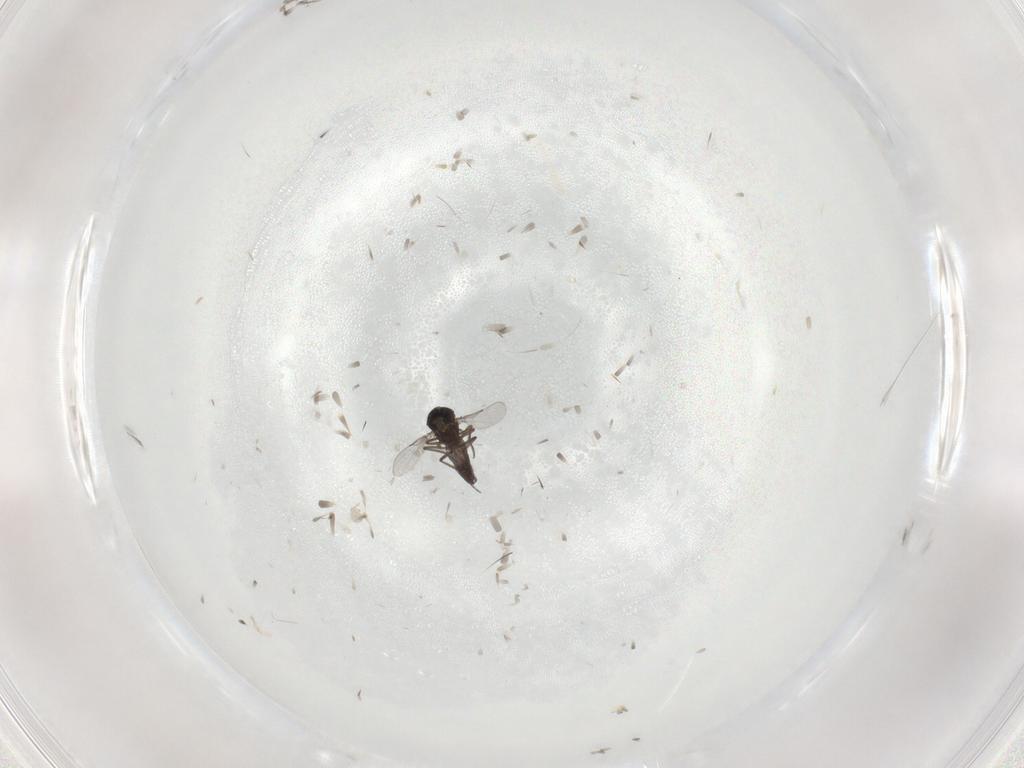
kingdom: Animalia
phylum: Arthropoda
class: Insecta
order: Diptera
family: Ceratopogonidae
